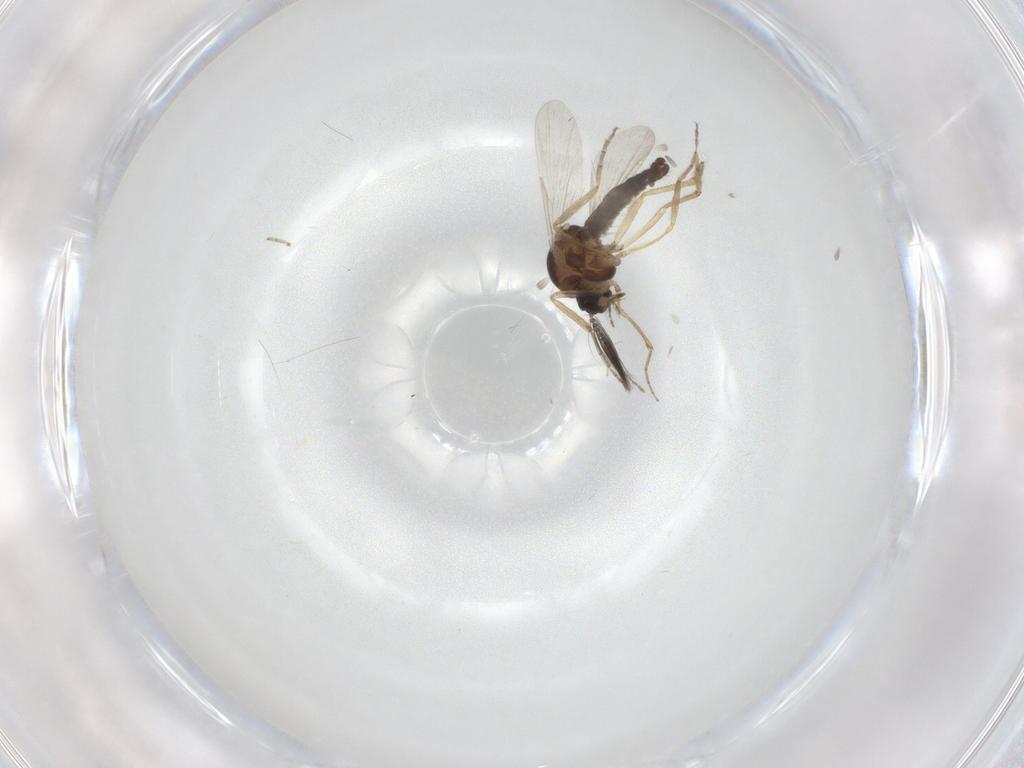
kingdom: Animalia
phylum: Arthropoda
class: Insecta
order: Diptera
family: Ceratopogonidae
